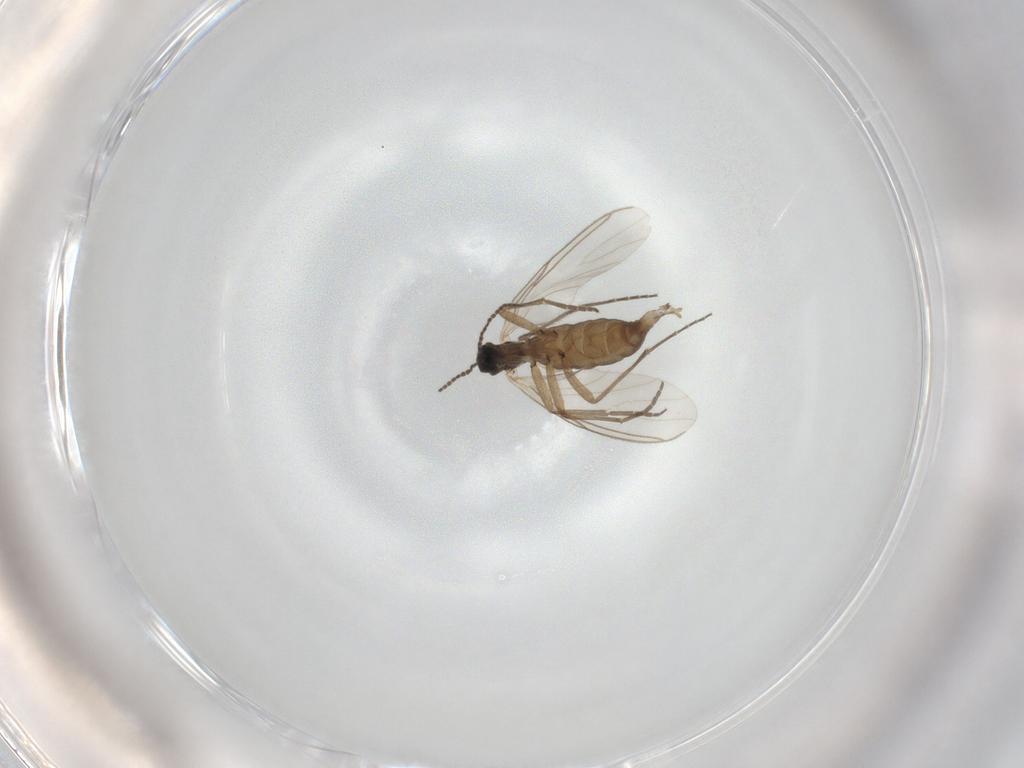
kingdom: Animalia
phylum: Arthropoda
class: Insecta
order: Diptera
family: Sciaridae
